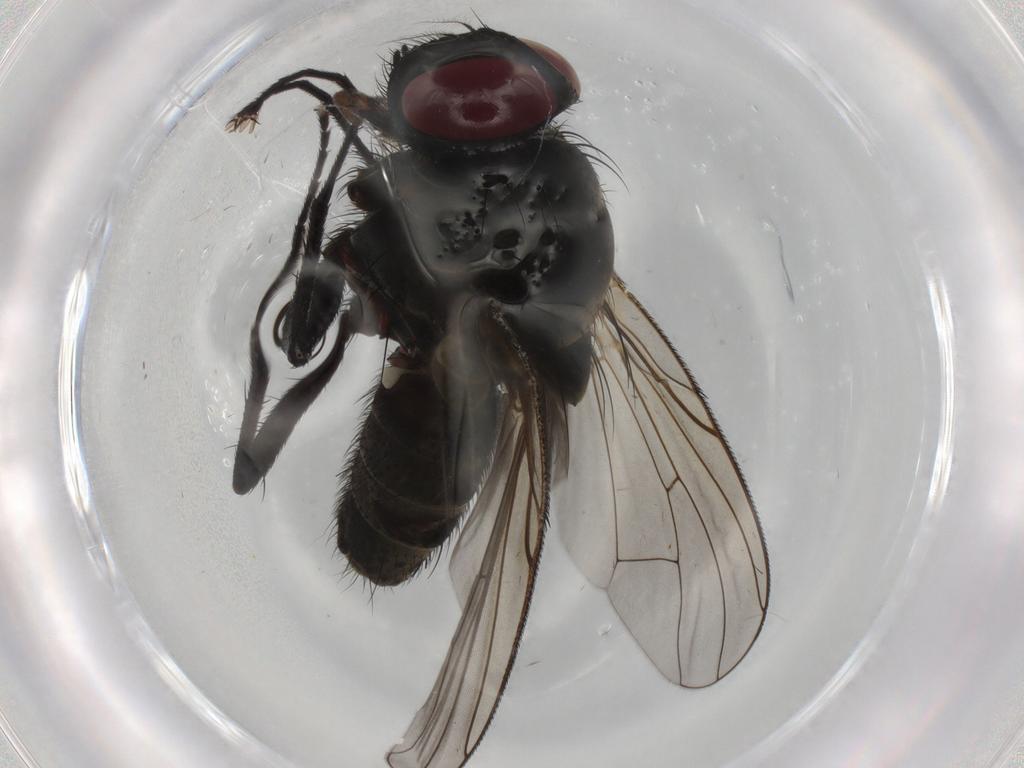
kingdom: Animalia
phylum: Arthropoda
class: Insecta
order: Diptera
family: Muscidae
